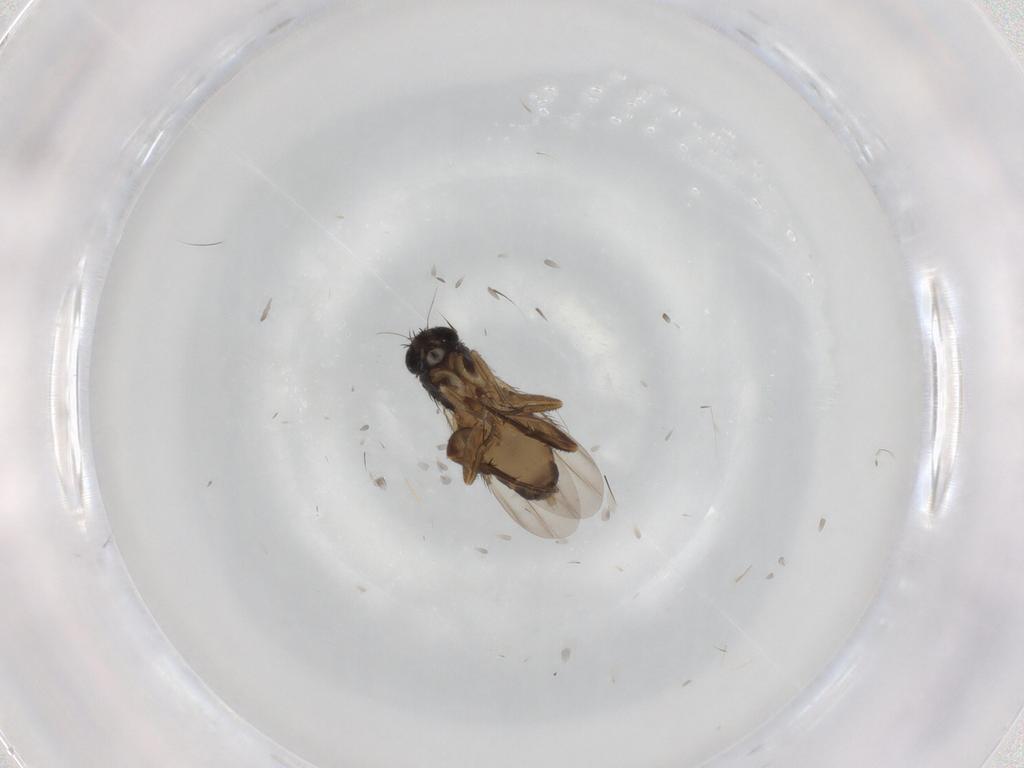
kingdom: Animalia
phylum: Arthropoda
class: Insecta
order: Diptera
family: Phoridae
